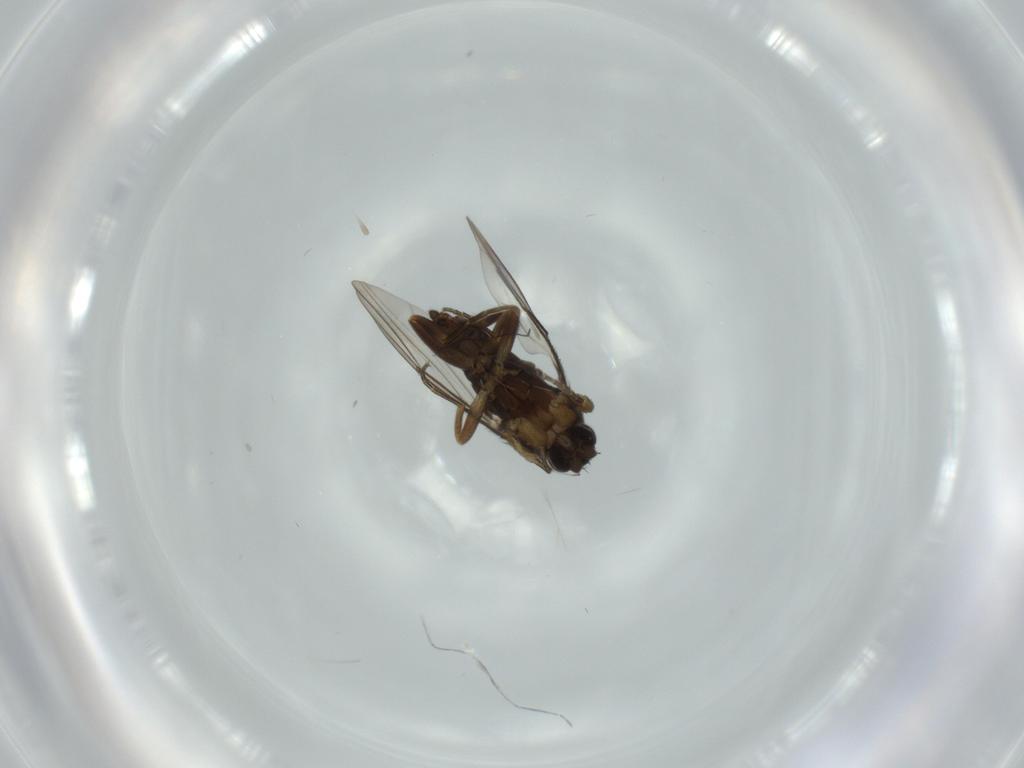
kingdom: Animalia
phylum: Arthropoda
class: Insecta
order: Diptera
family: Phoridae
